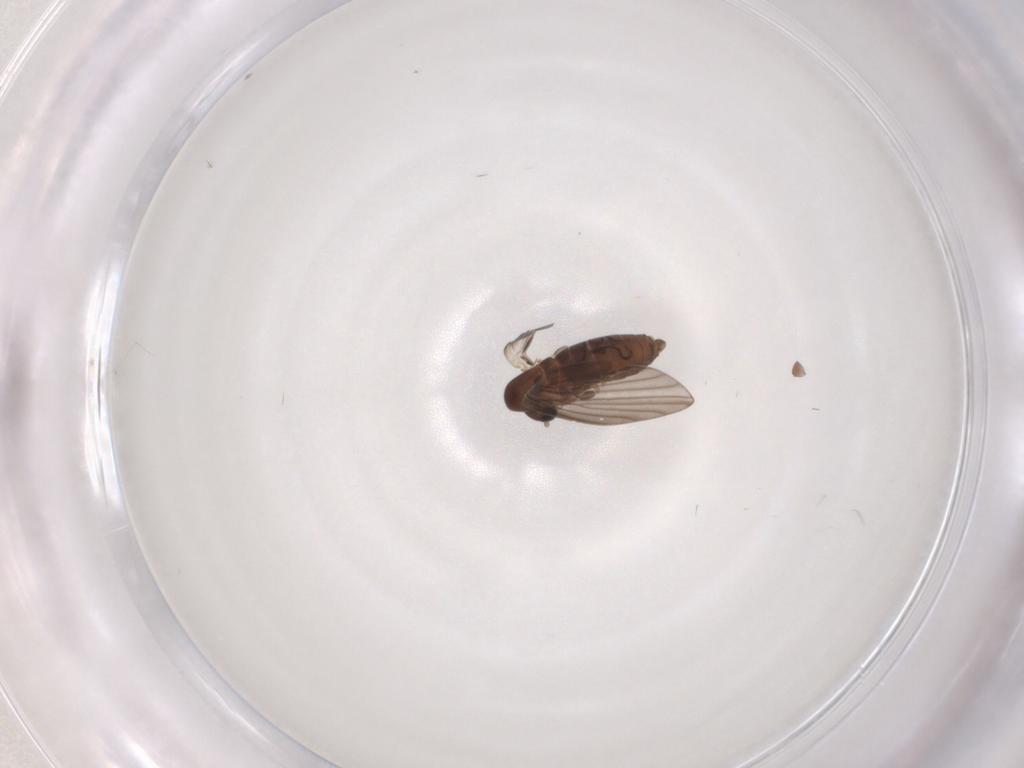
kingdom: Animalia
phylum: Arthropoda
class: Insecta
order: Diptera
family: Psychodidae
